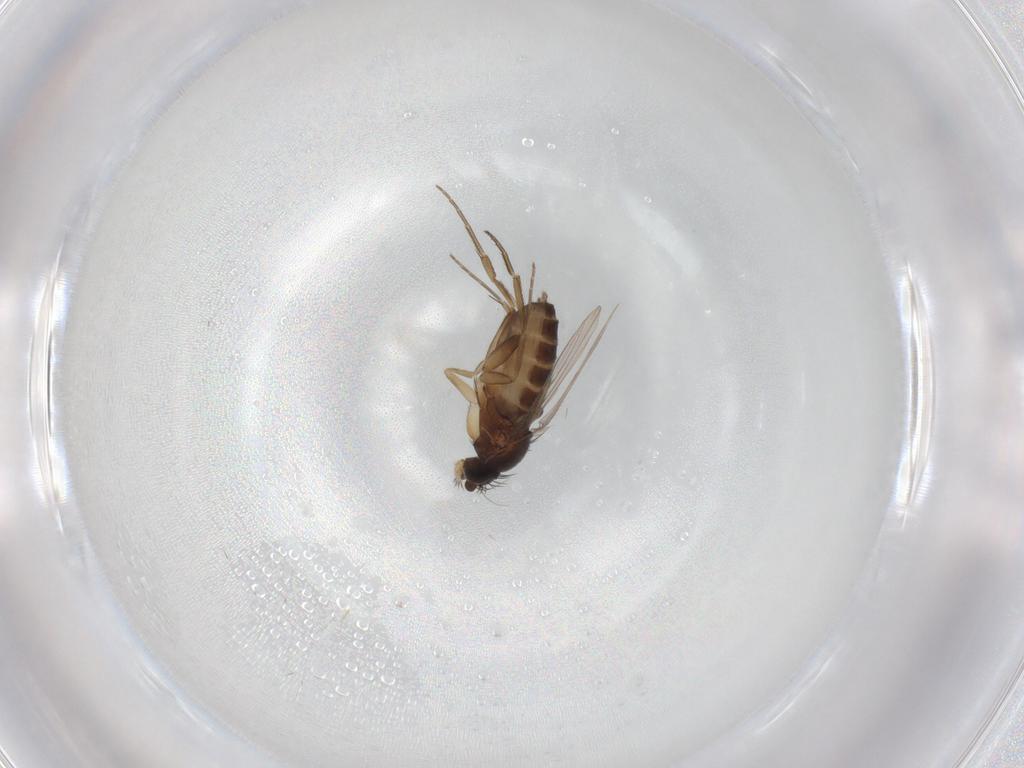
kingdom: Animalia
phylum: Arthropoda
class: Insecta
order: Diptera
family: Phoridae
